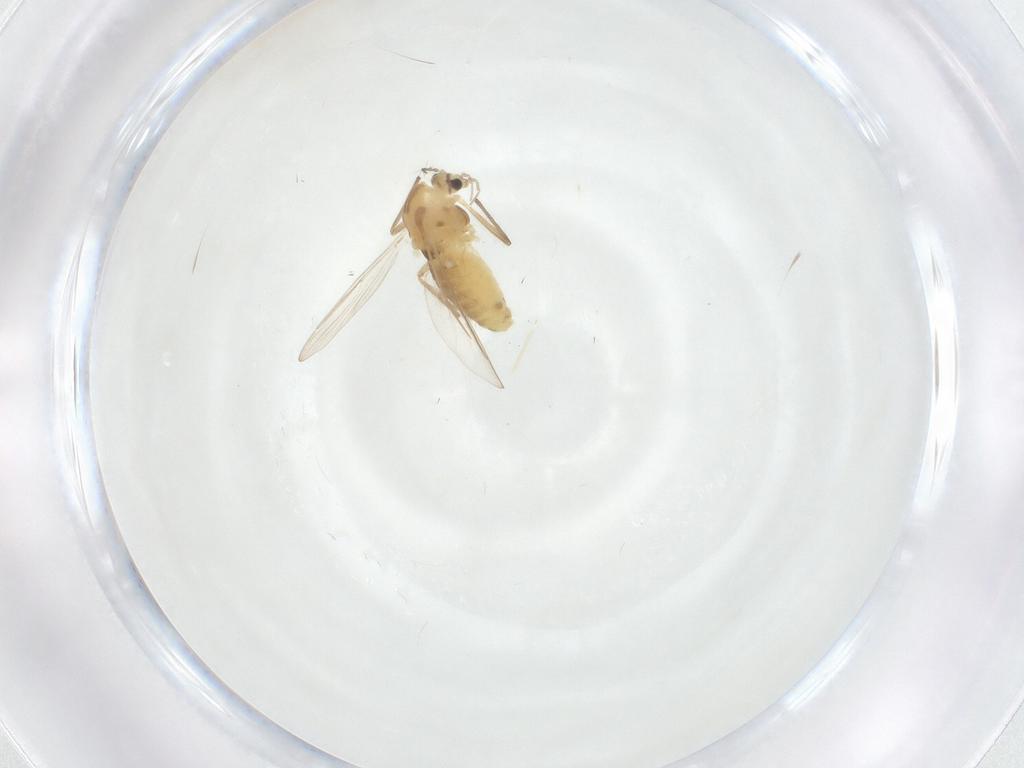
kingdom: Animalia
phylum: Arthropoda
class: Insecta
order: Diptera
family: Chironomidae
